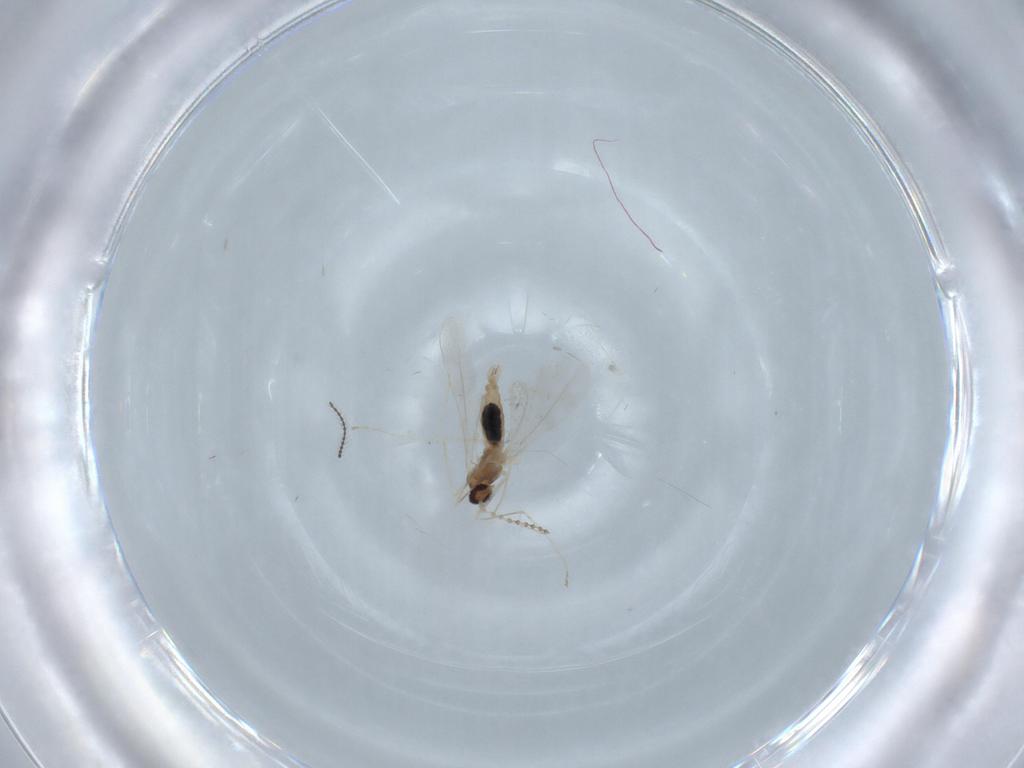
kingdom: Animalia
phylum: Arthropoda
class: Insecta
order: Diptera
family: Cecidomyiidae
